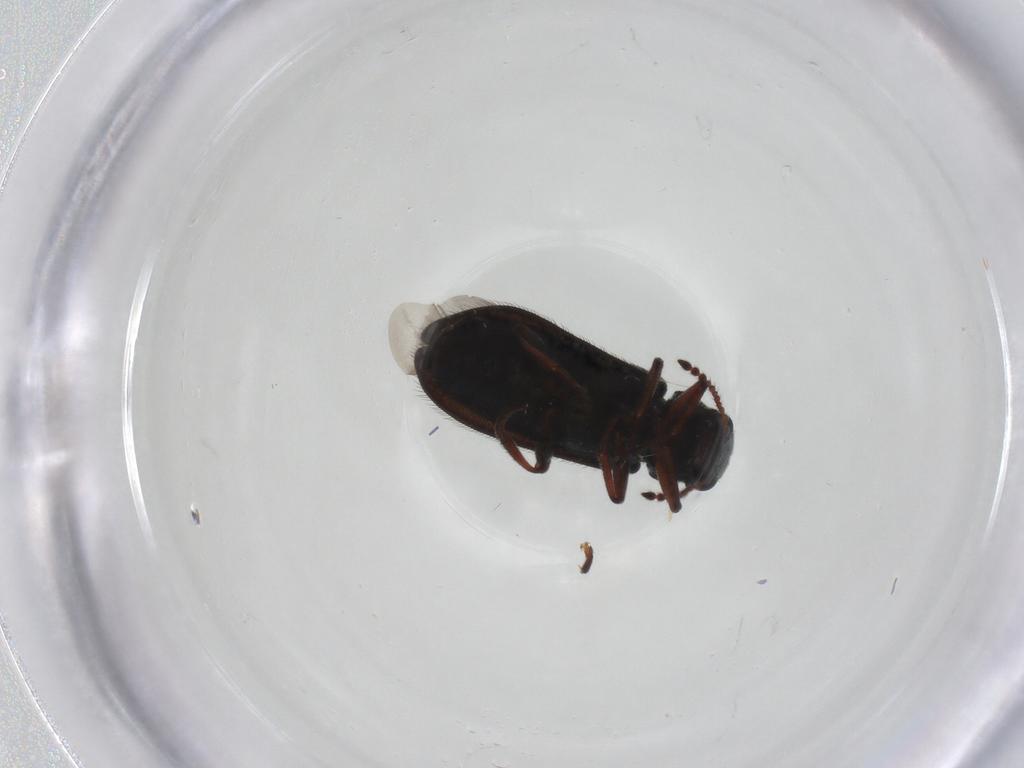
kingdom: Animalia
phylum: Arthropoda
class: Insecta
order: Coleoptera
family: Melyridae
